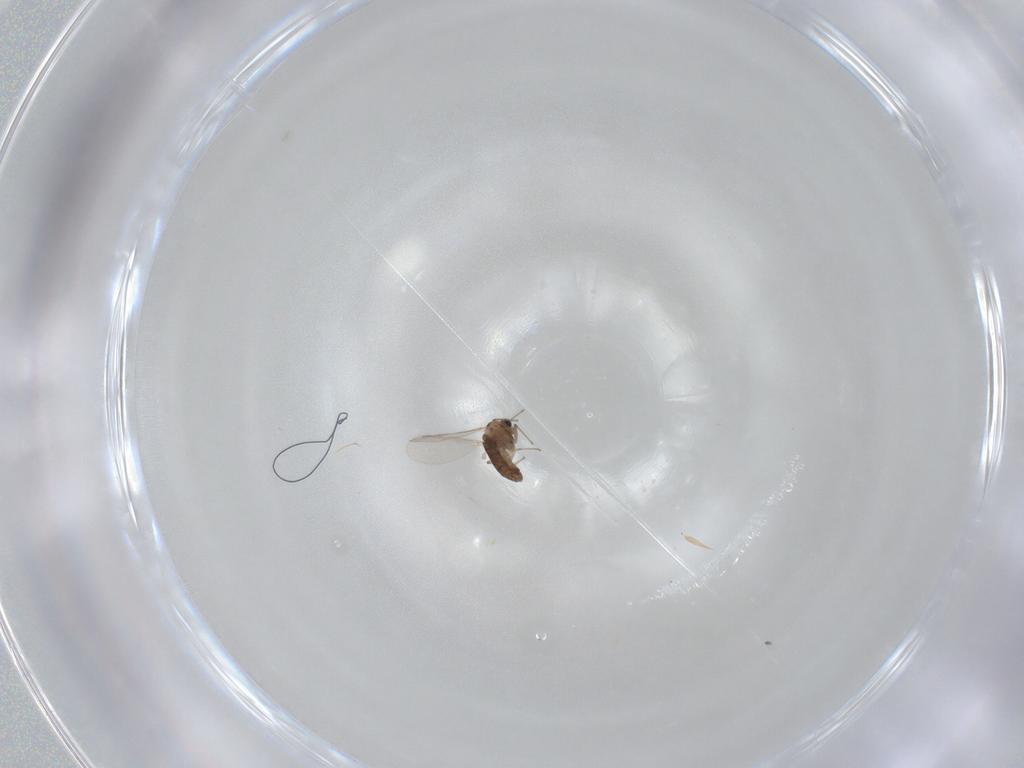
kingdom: Animalia
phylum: Arthropoda
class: Insecta
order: Diptera
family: Chironomidae
